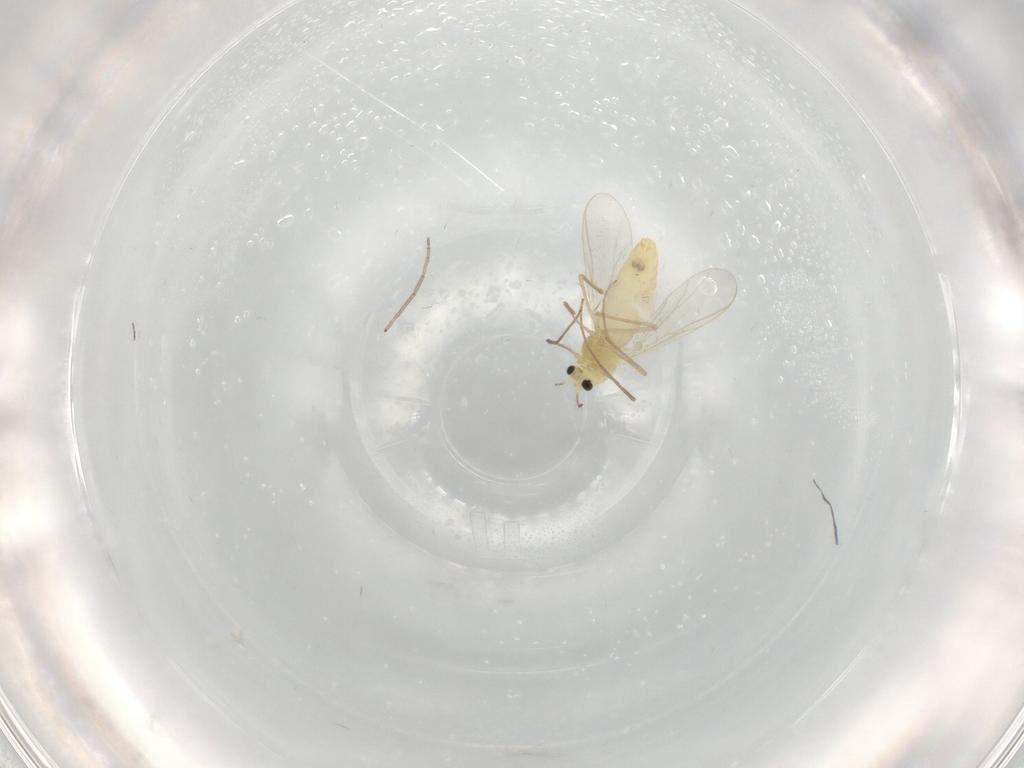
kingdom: Animalia
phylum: Arthropoda
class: Insecta
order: Diptera
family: Chironomidae
